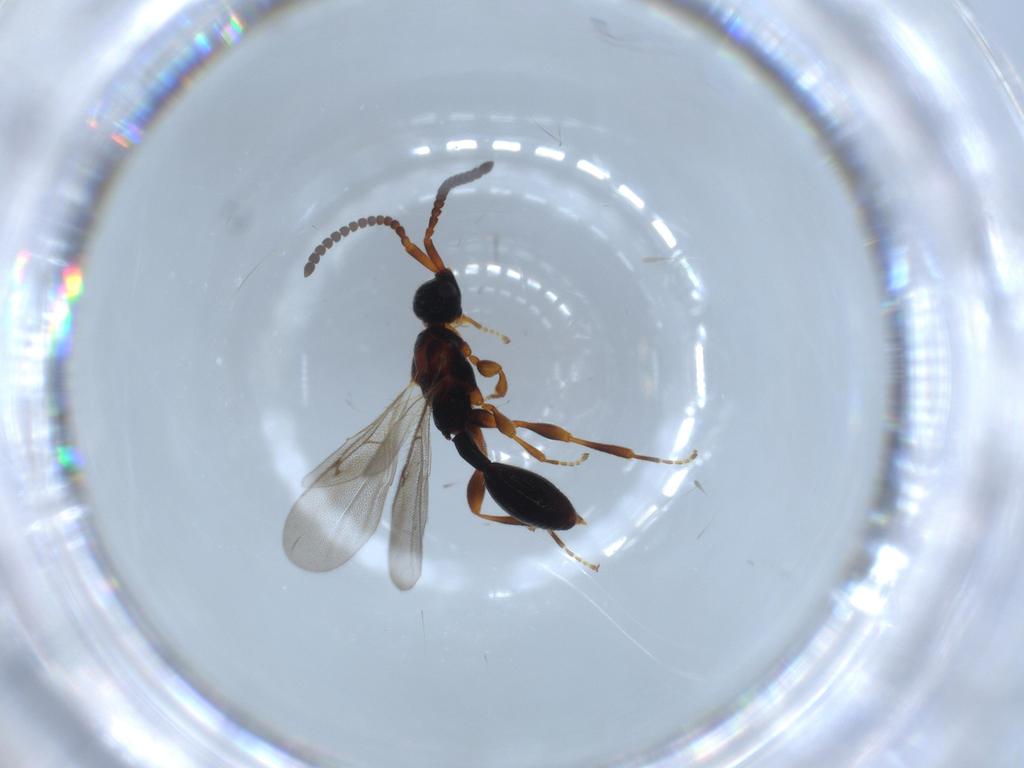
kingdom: Animalia
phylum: Arthropoda
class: Insecta
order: Hymenoptera
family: Diapriidae
